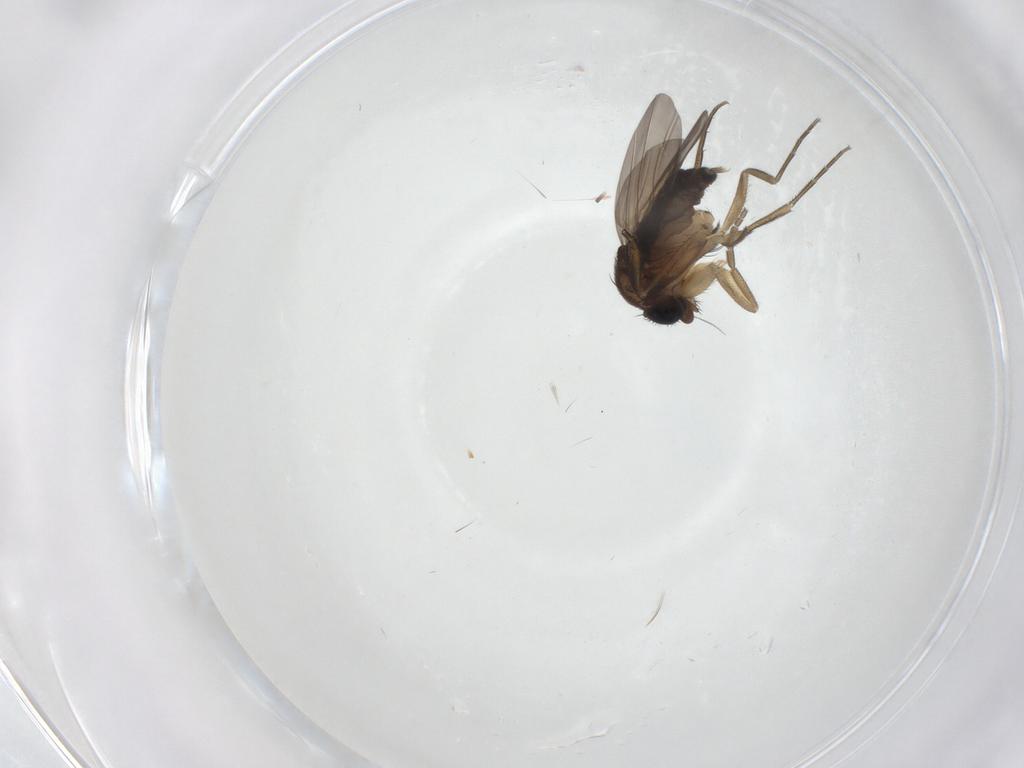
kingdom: Animalia
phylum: Arthropoda
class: Insecta
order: Diptera
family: Phoridae
